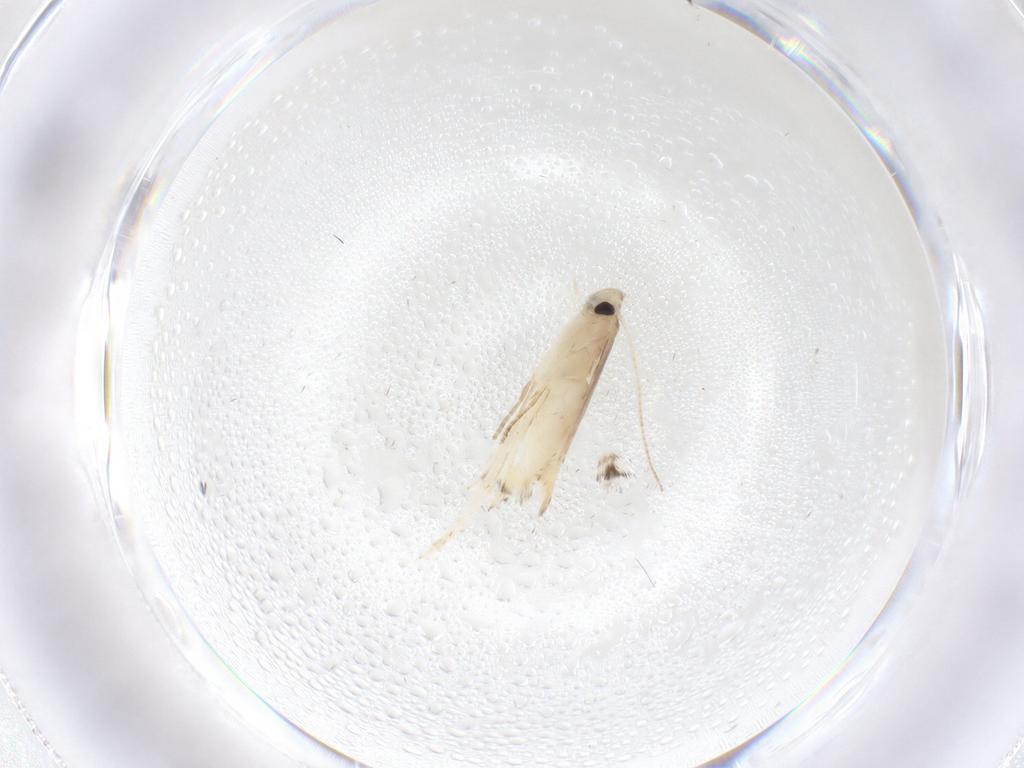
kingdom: Animalia
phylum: Arthropoda
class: Insecta
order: Lepidoptera
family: Gracillariidae
